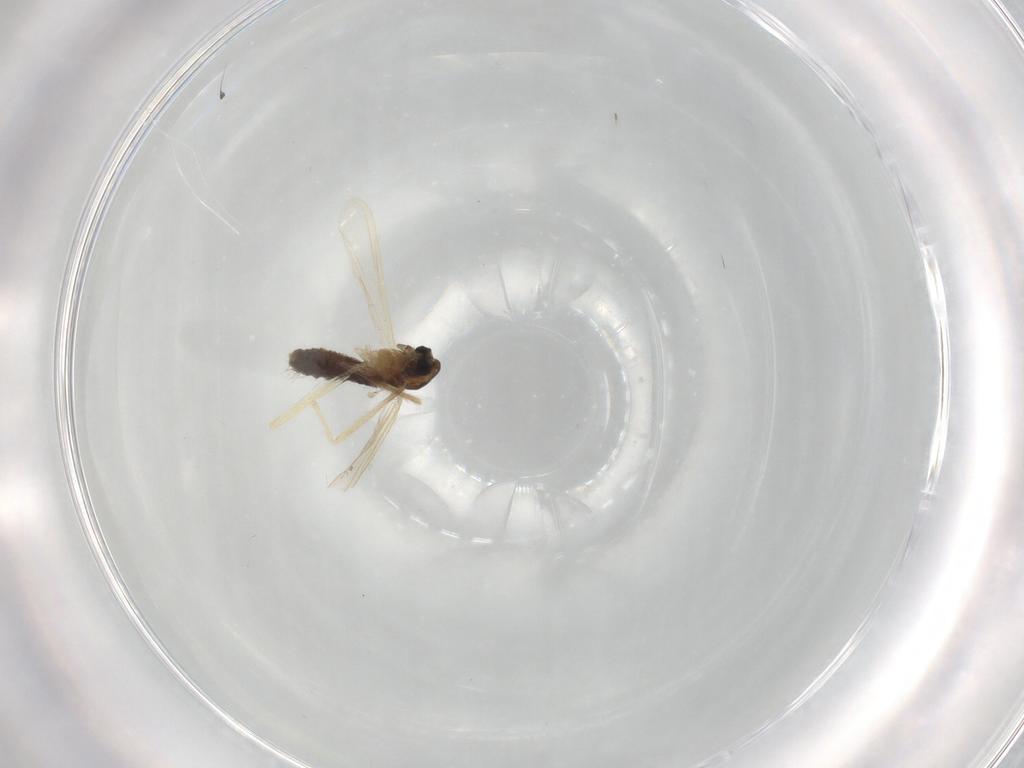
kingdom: Animalia
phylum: Arthropoda
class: Insecta
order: Diptera
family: Chironomidae
